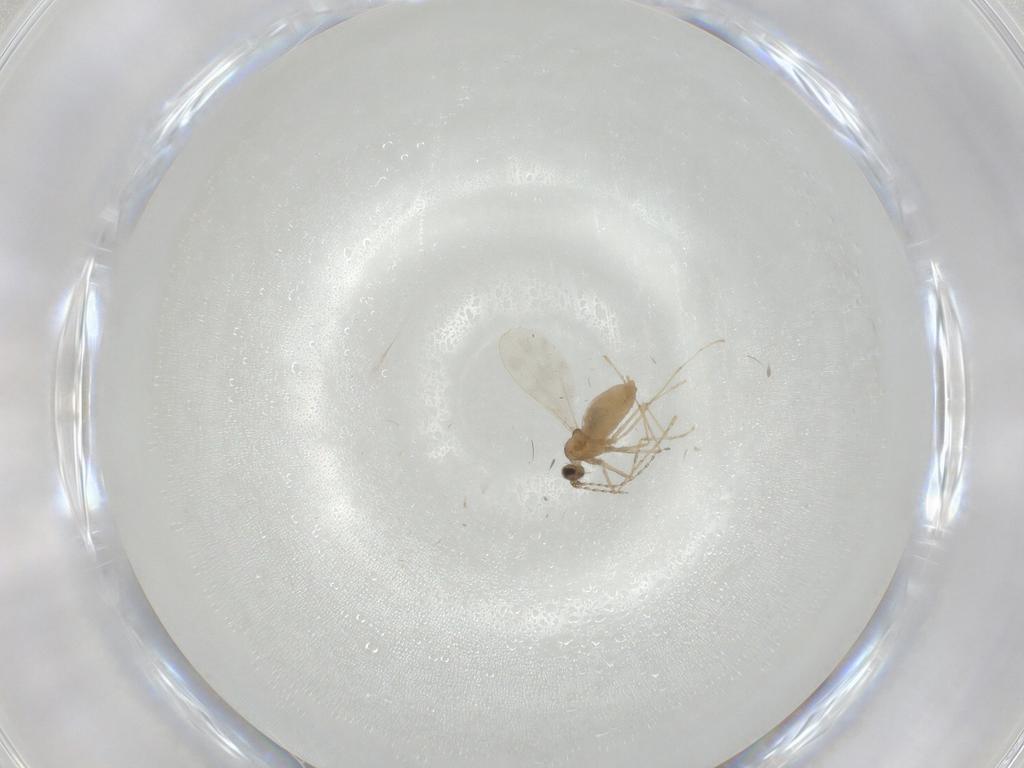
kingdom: Animalia
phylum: Arthropoda
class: Insecta
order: Diptera
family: Cecidomyiidae
